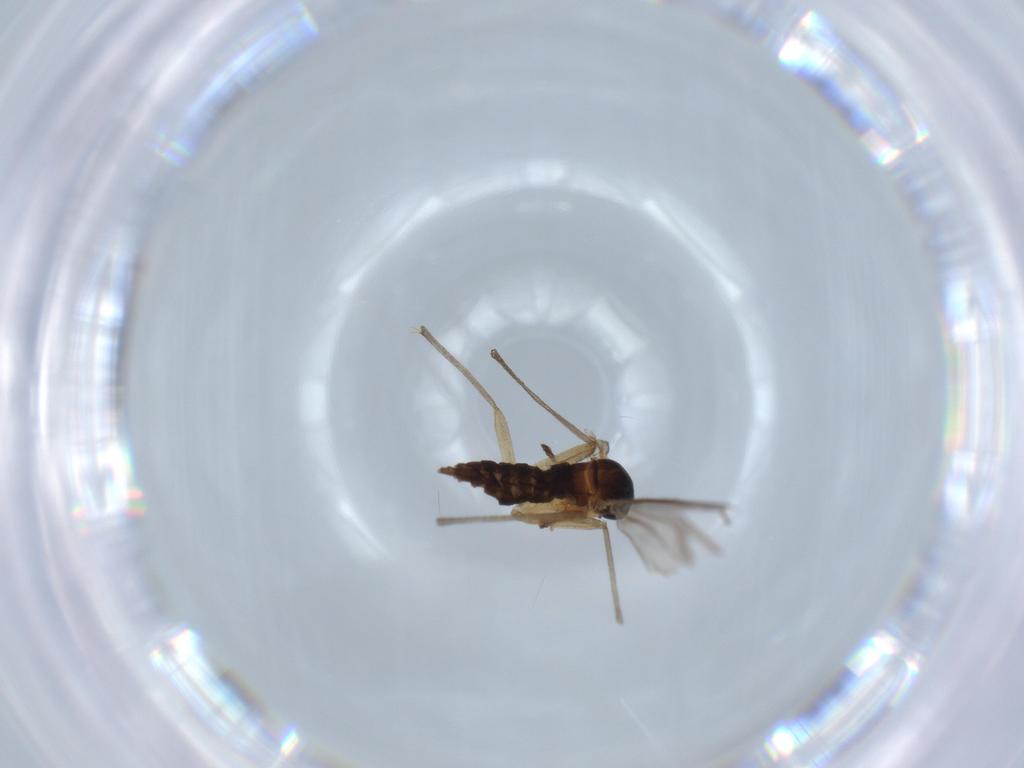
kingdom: Animalia
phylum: Arthropoda
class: Insecta
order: Diptera
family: Sciaridae
